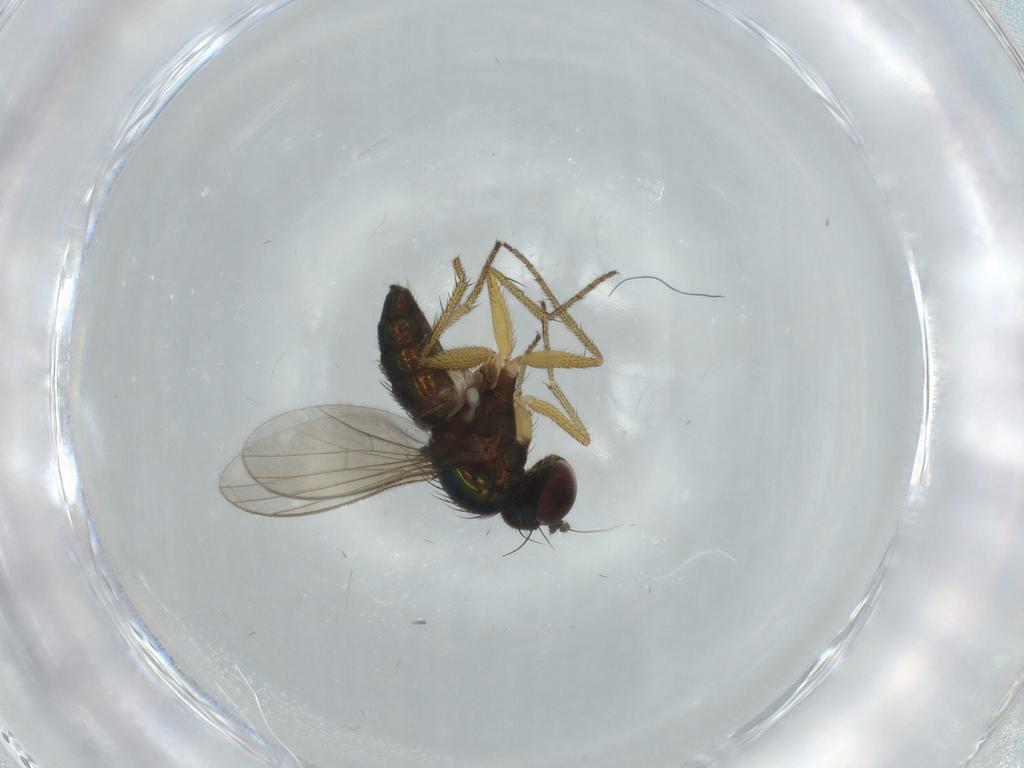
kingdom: Animalia
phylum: Arthropoda
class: Insecta
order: Diptera
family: Dolichopodidae
